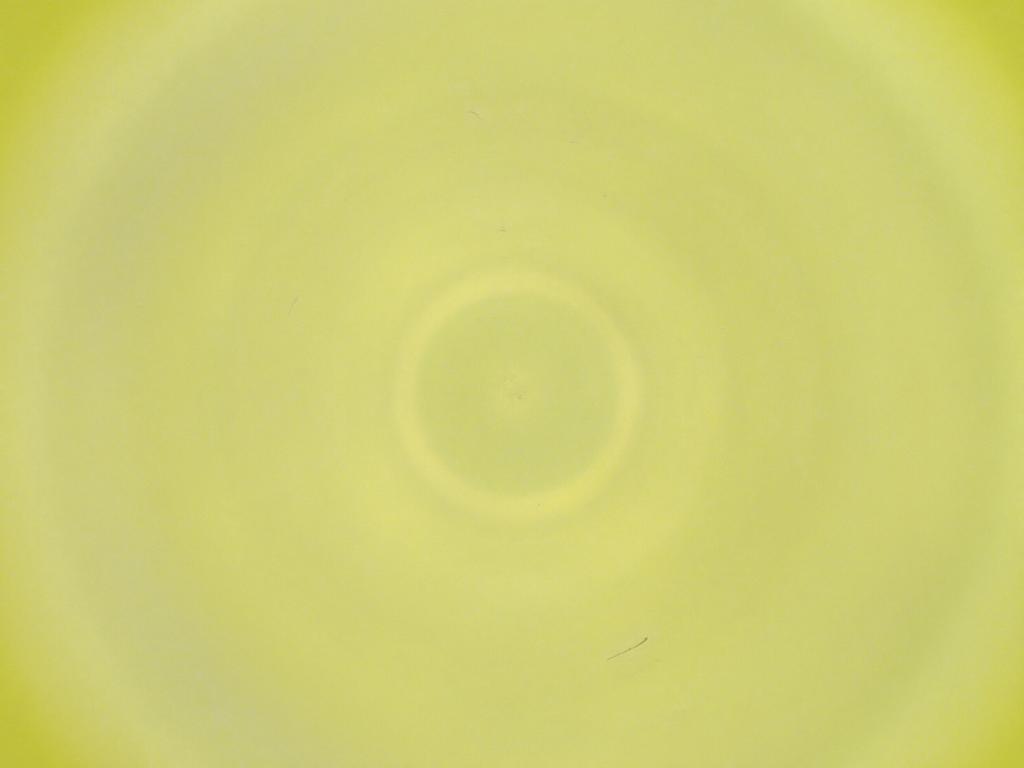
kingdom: Animalia
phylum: Arthropoda
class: Insecta
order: Diptera
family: Cecidomyiidae
